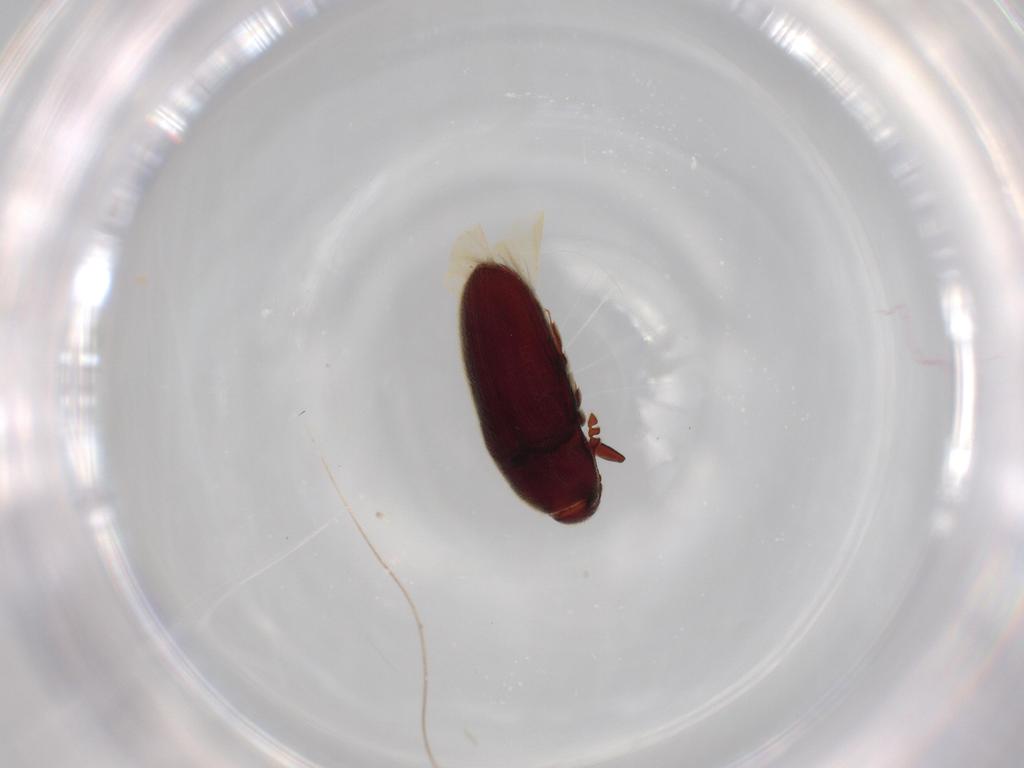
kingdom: Animalia
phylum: Arthropoda
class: Insecta
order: Coleoptera
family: Throscidae
